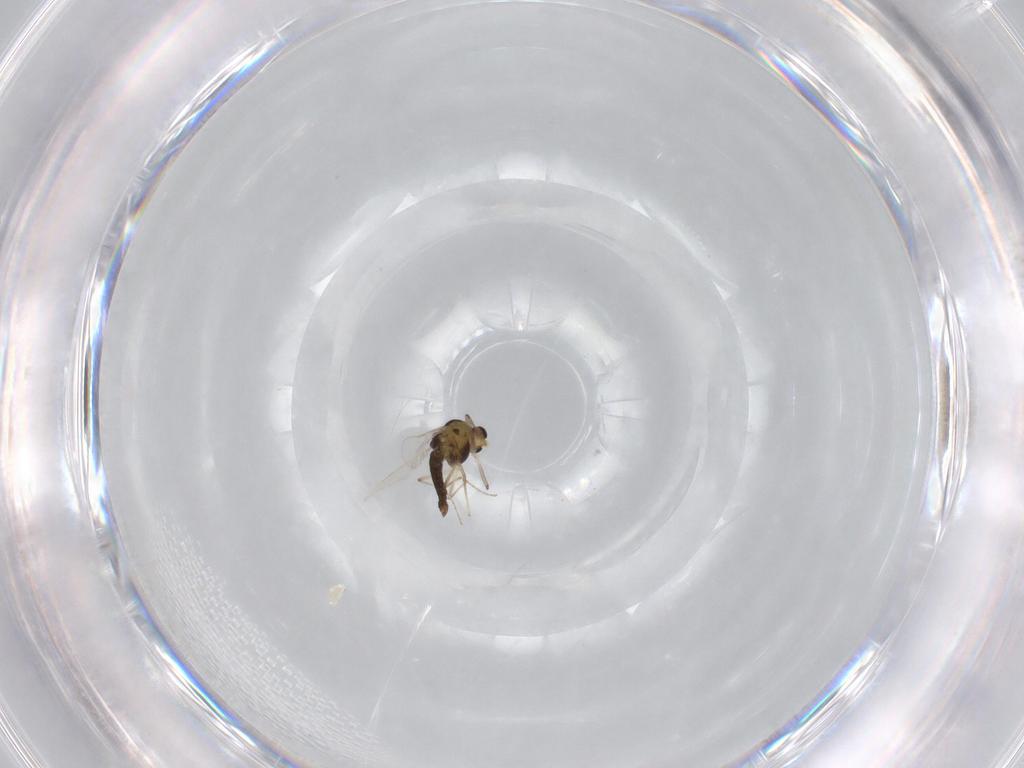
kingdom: Animalia
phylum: Arthropoda
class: Insecta
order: Diptera
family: Chironomidae
